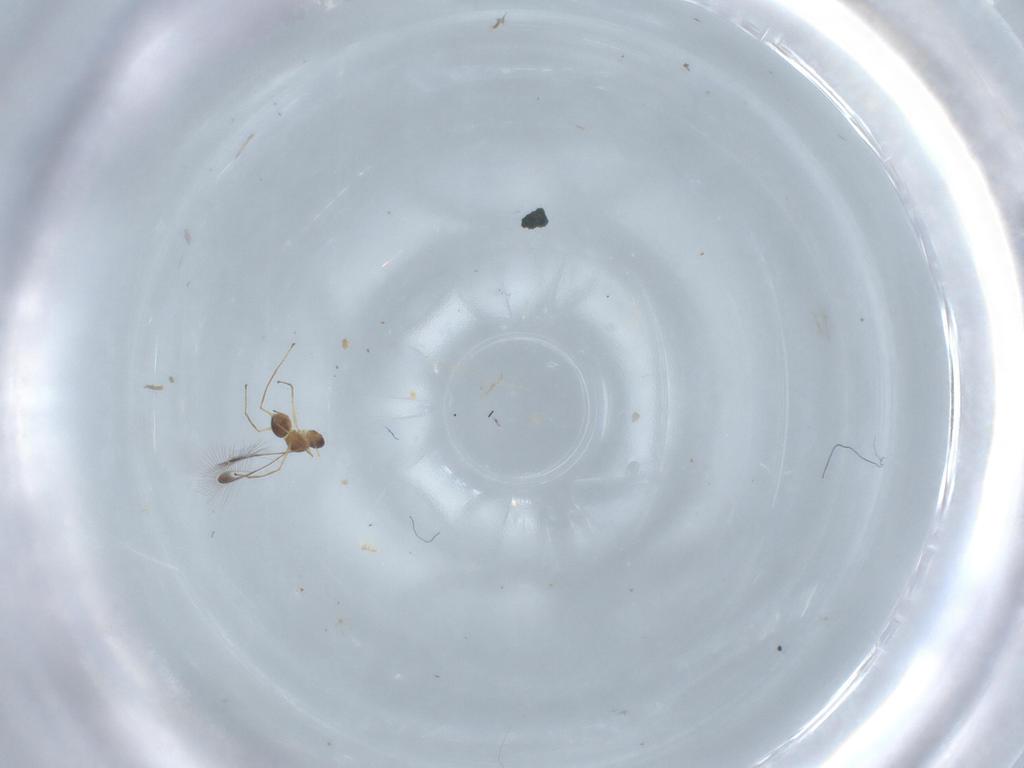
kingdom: Animalia
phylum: Arthropoda
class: Insecta
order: Hymenoptera
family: Mymaridae
